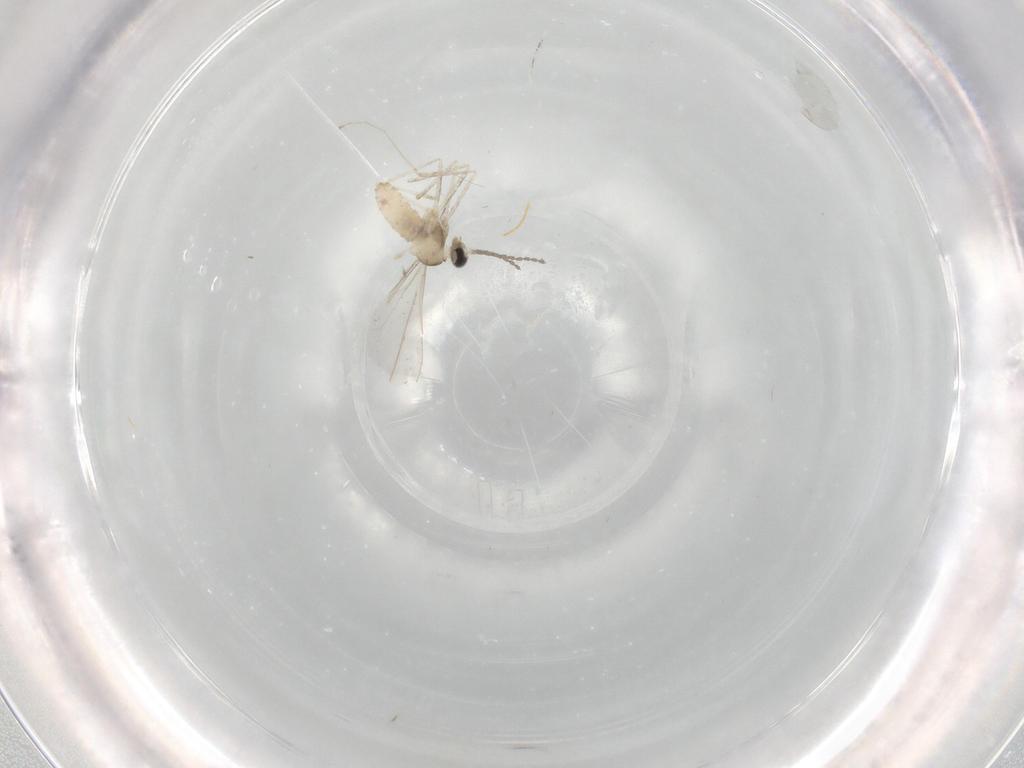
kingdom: Animalia
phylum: Arthropoda
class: Insecta
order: Diptera
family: Cecidomyiidae
